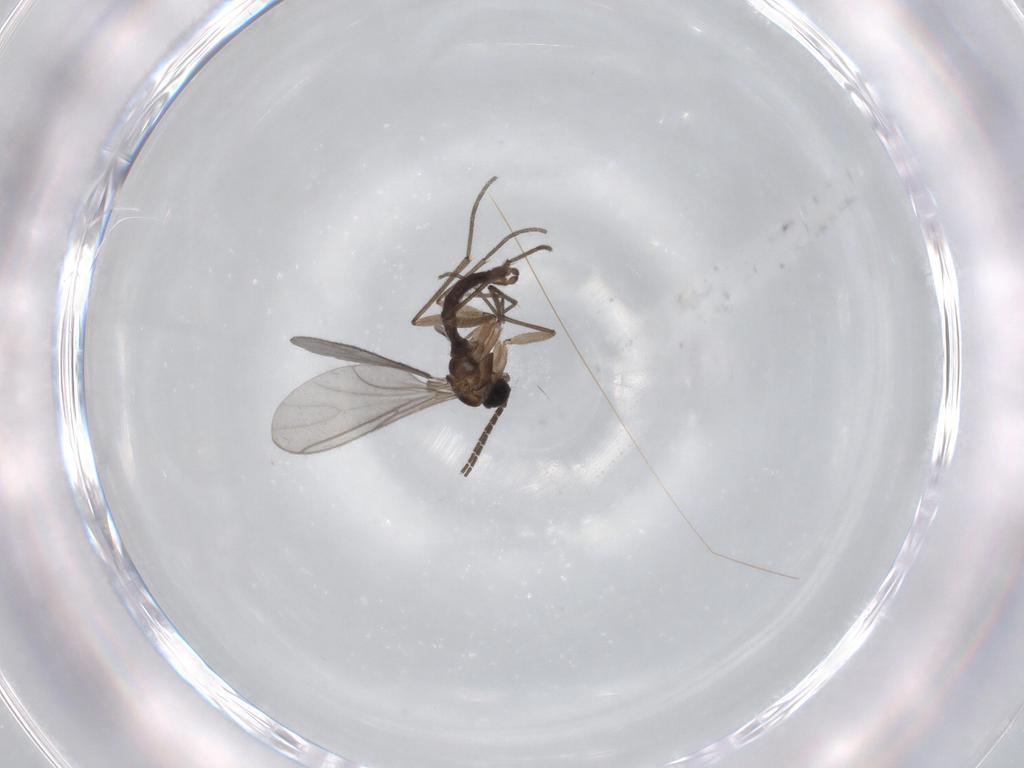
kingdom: Animalia
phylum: Arthropoda
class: Insecta
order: Diptera
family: Sciaridae
